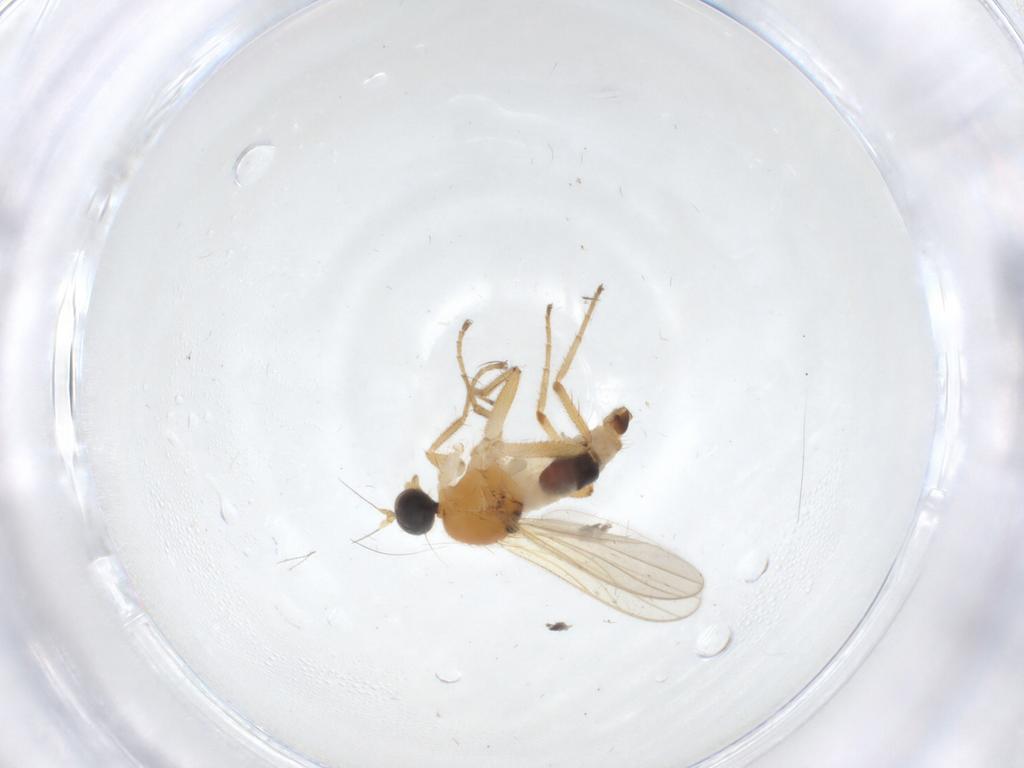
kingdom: Animalia
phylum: Arthropoda
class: Insecta
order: Diptera
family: Hybotidae
